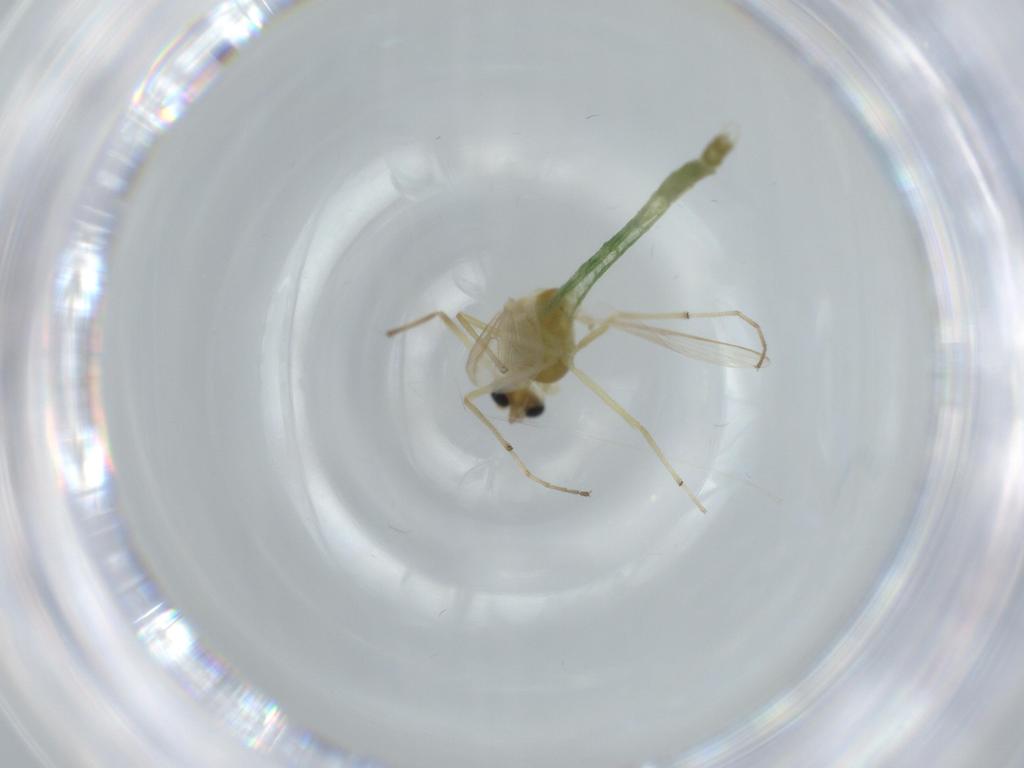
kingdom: Animalia
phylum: Arthropoda
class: Insecta
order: Diptera
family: Chironomidae
